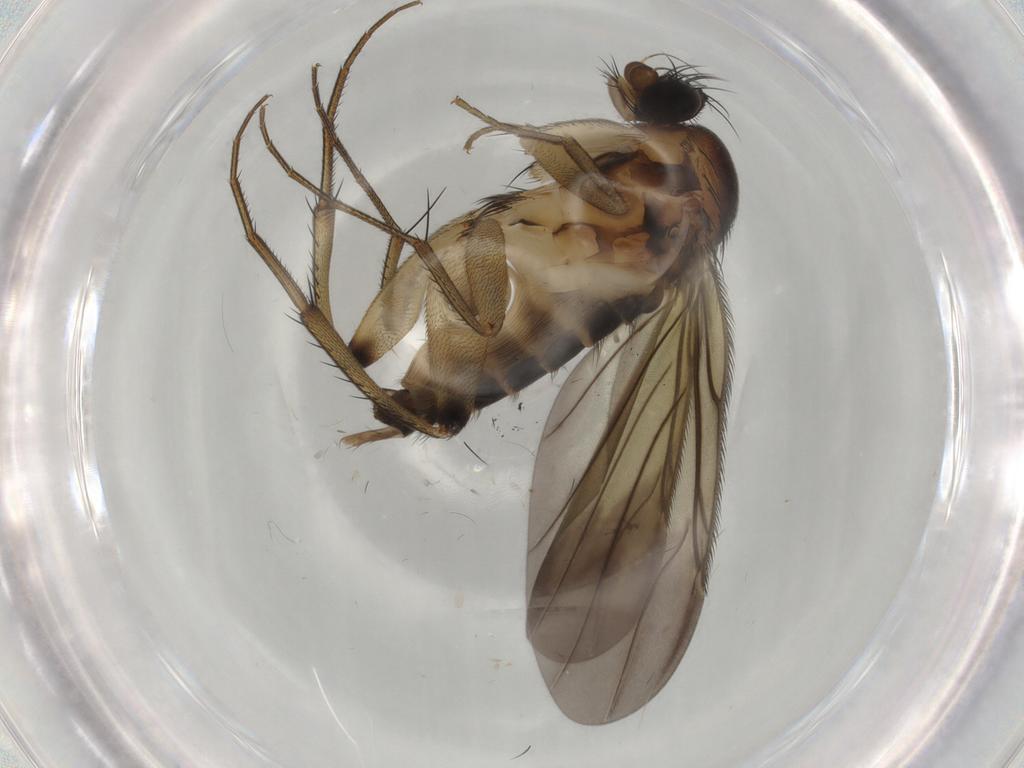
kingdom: Animalia
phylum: Arthropoda
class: Insecta
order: Diptera
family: Phoridae
